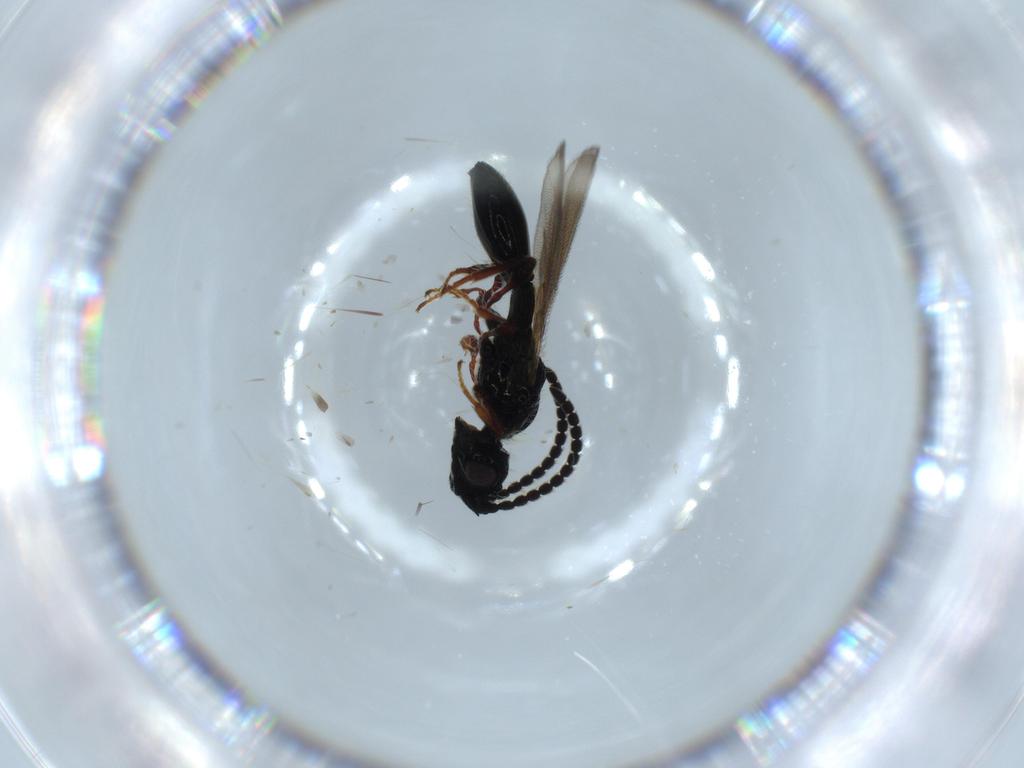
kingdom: Animalia
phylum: Arthropoda
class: Insecta
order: Hymenoptera
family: Diapriidae
